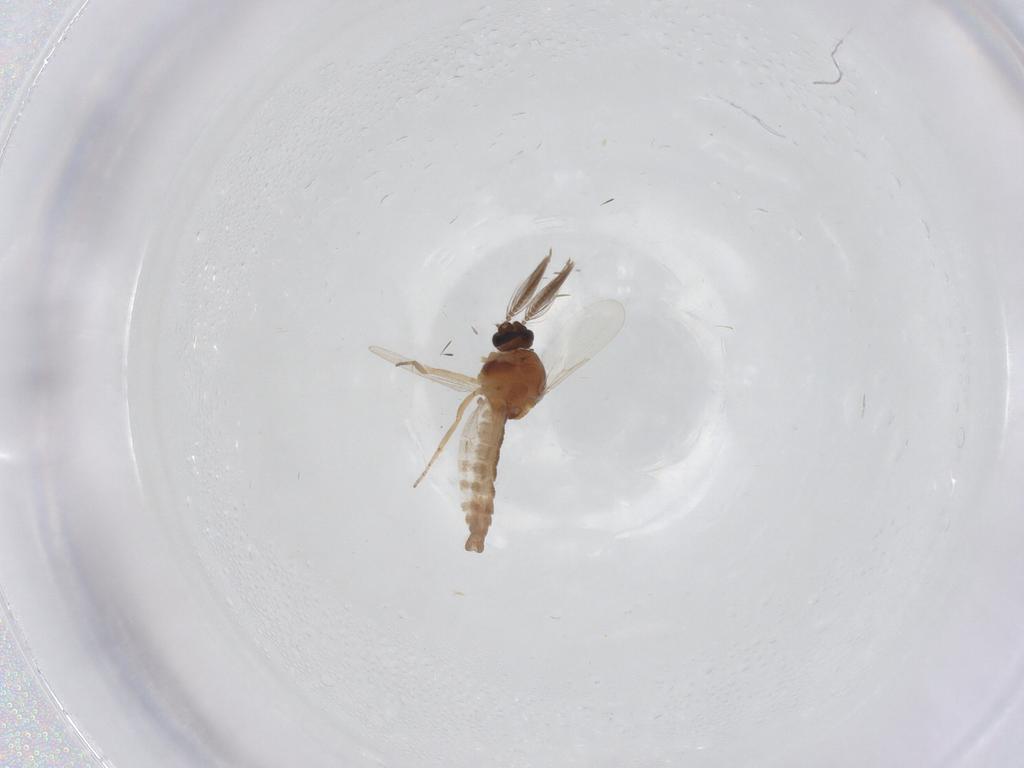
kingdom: Animalia
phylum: Arthropoda
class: Insecta
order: Diptera
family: Ceratopogonidae
